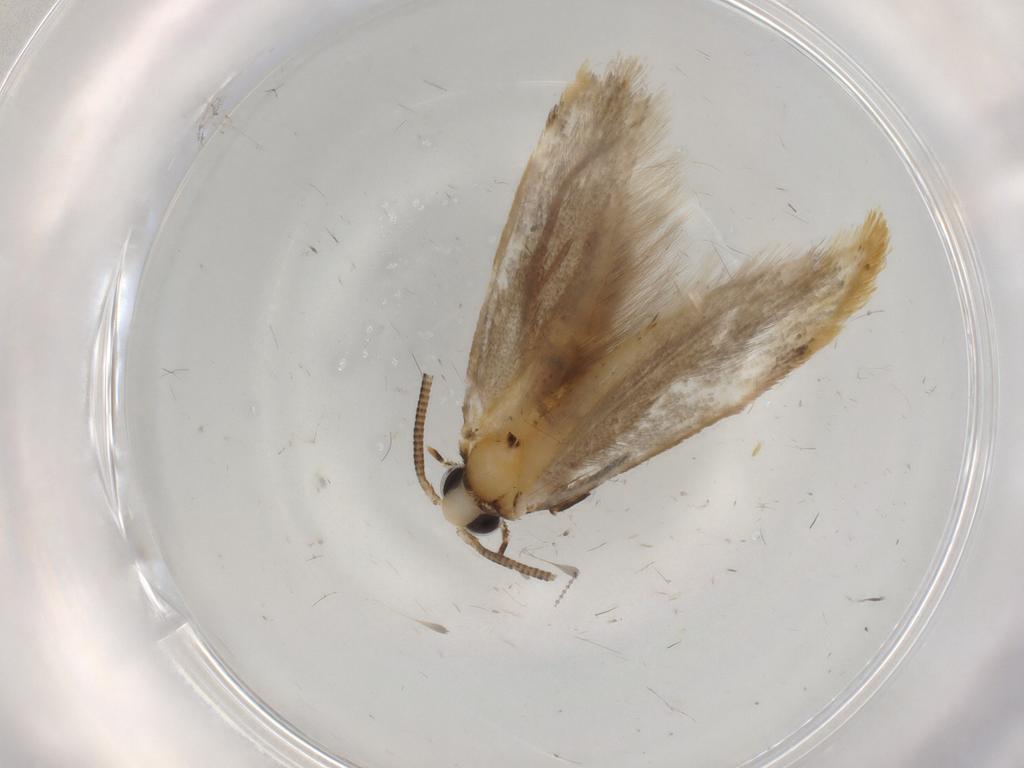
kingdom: Animalia
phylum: Arthropoda
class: Insecta
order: Lepidoptera
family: Tineidae
